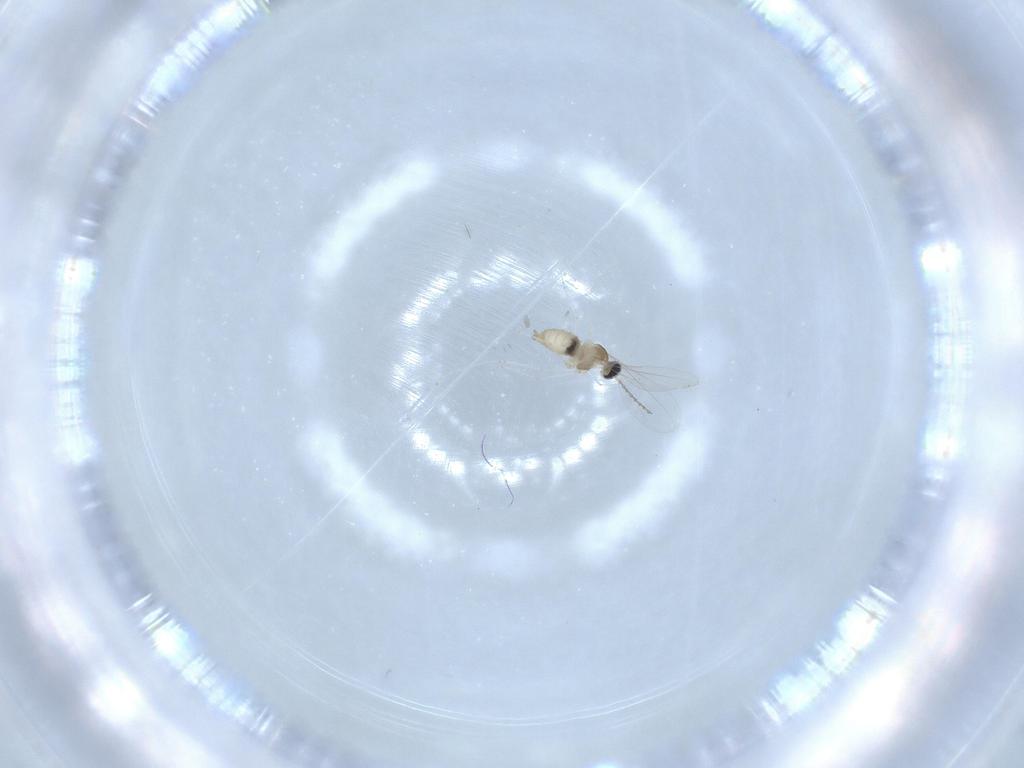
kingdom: Animalia
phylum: Arthropoda
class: Insecta
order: Diptera
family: Cecidomyiidae
